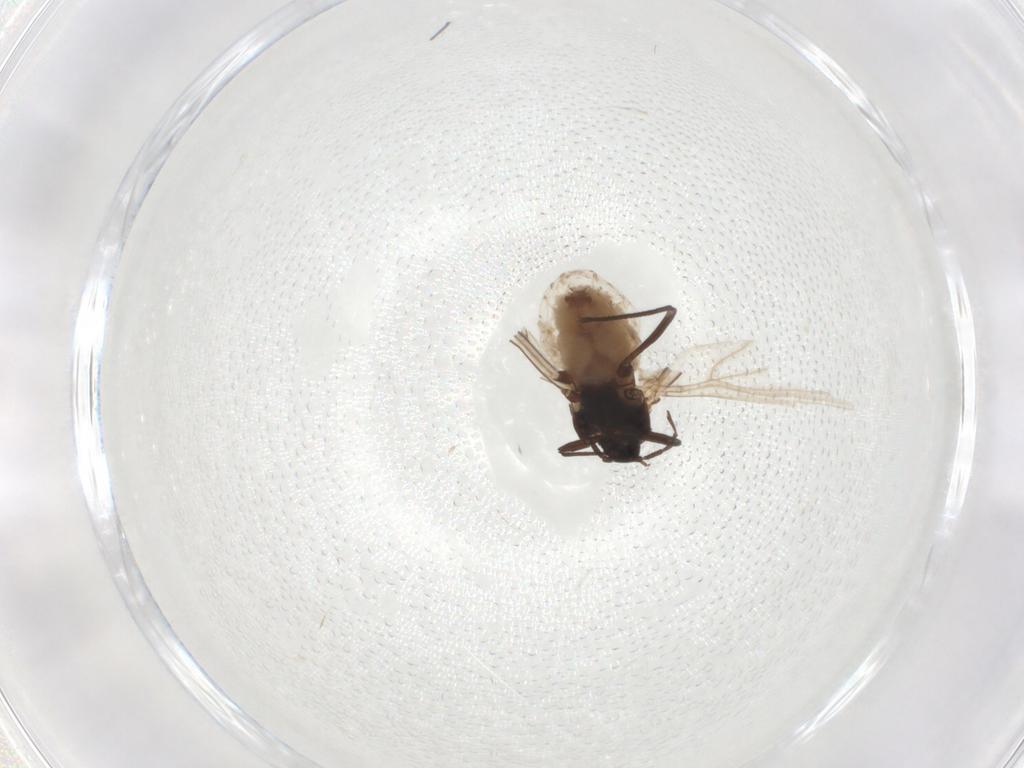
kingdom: Animalia
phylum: Arthropoda
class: Insecta
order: Hemiptera
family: Aphididae
